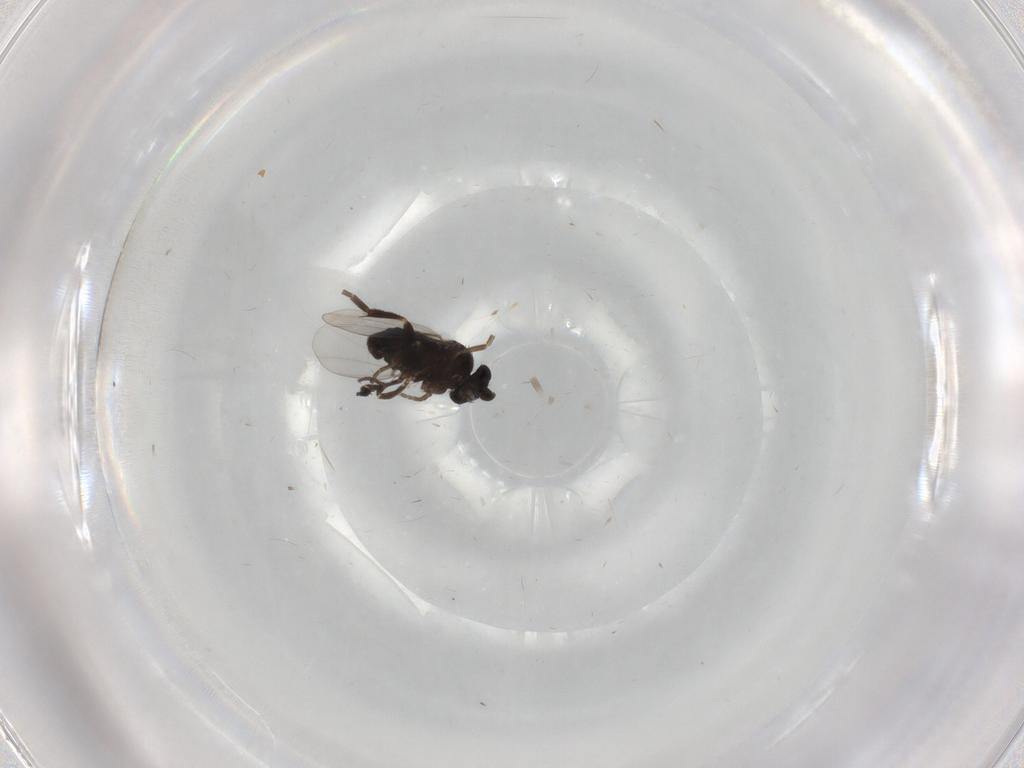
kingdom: Animalia
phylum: Arthropoda
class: Insecta
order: Diptera
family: Phoridae
